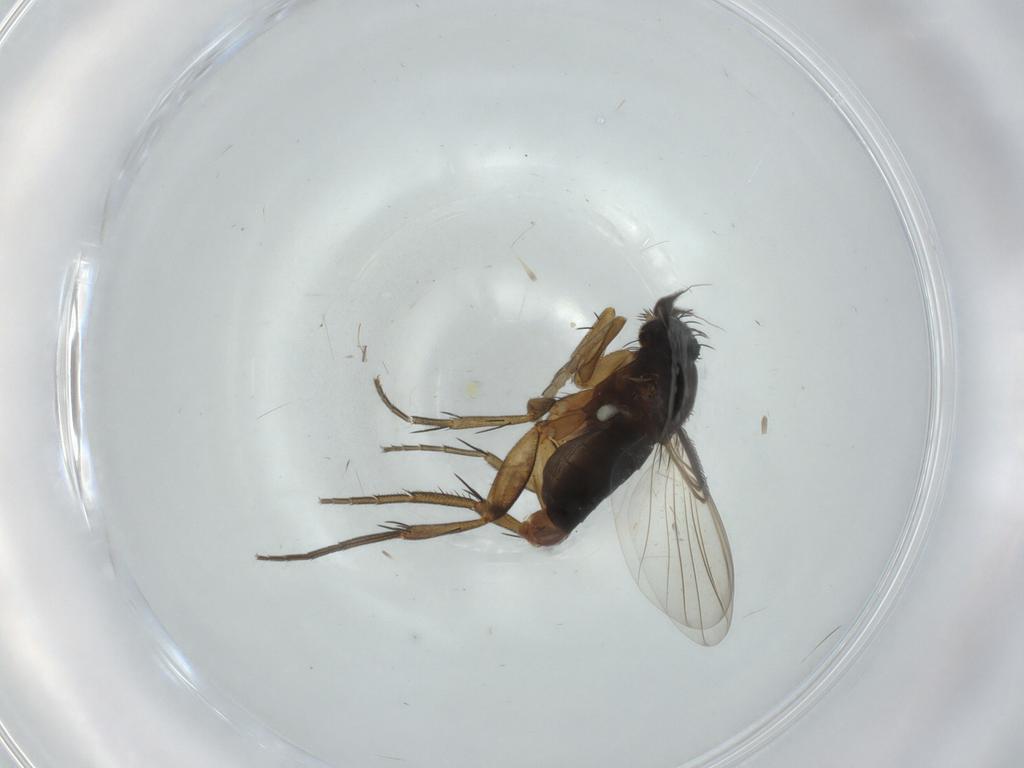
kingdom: Animalia
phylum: Arthropoda
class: Insecta
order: Diptera
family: Phoridae
